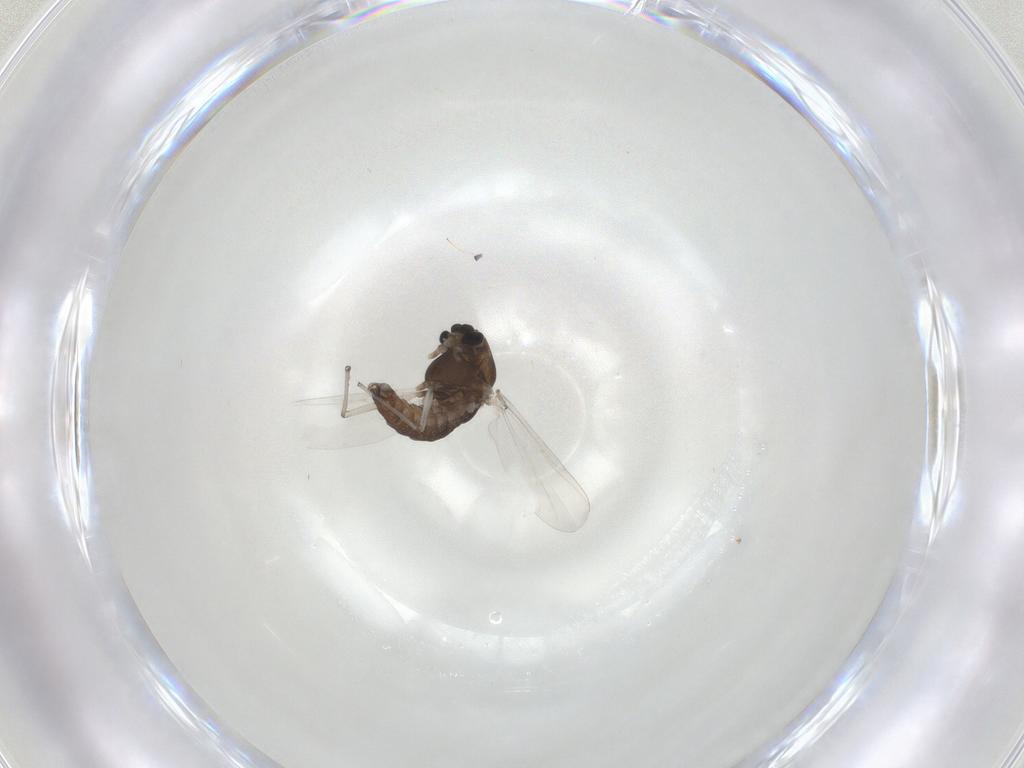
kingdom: Animalia
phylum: Arthropoda
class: Insecta
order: Diptera
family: Chironomidae
